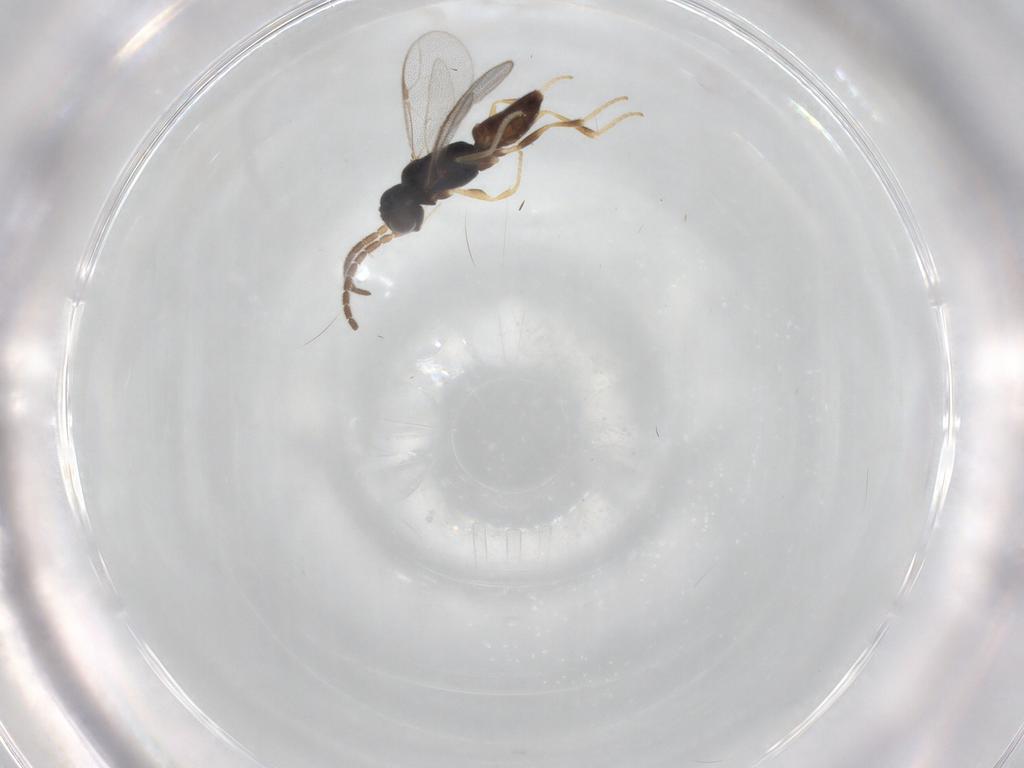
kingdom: Animalia
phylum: Arthropoda
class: Insecta
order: Hymenoptera
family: Dryinidae
